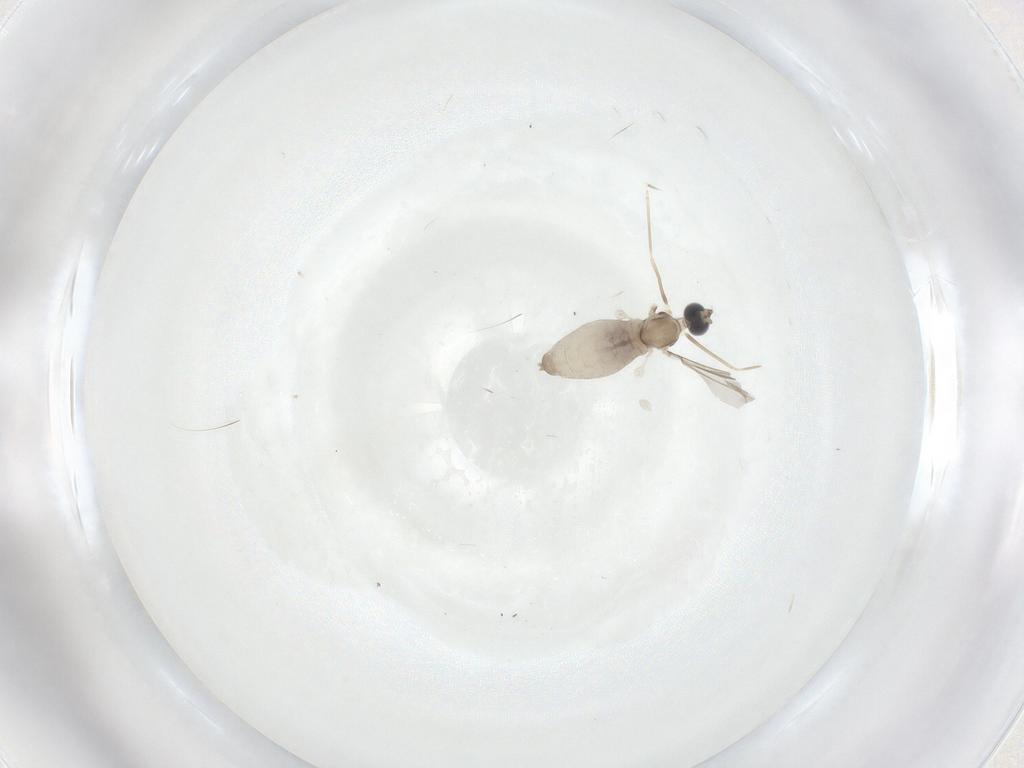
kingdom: Animalia
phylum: Arthropoda
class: Insecta
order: Diptera
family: Cecidomyiidae
